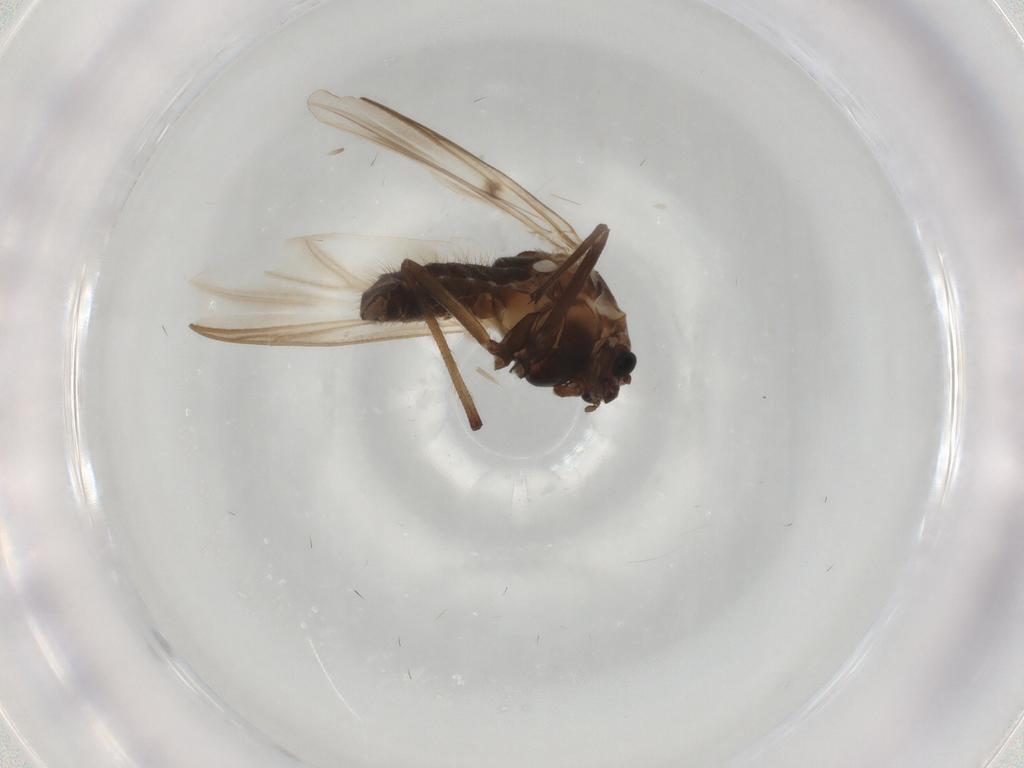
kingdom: Animalia
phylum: Arthropoda
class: Insecta
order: Diptera
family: Chironomidae
